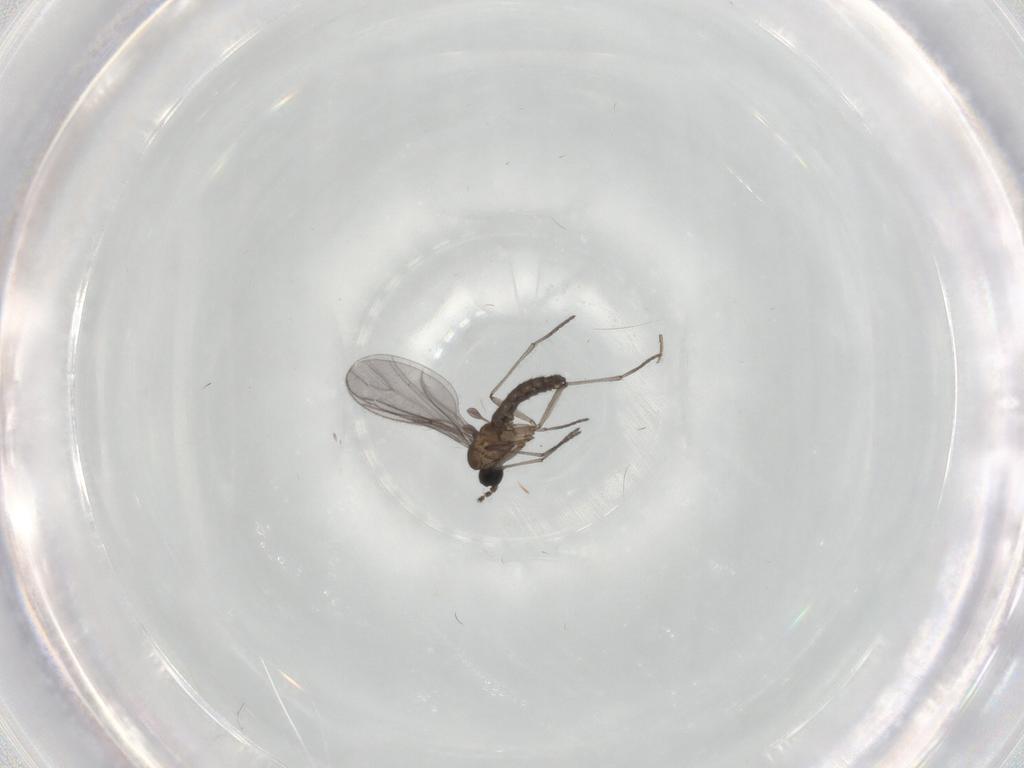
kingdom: Animalia
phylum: Arthropoda
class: Insecta
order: Diptera
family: Sciaridae
